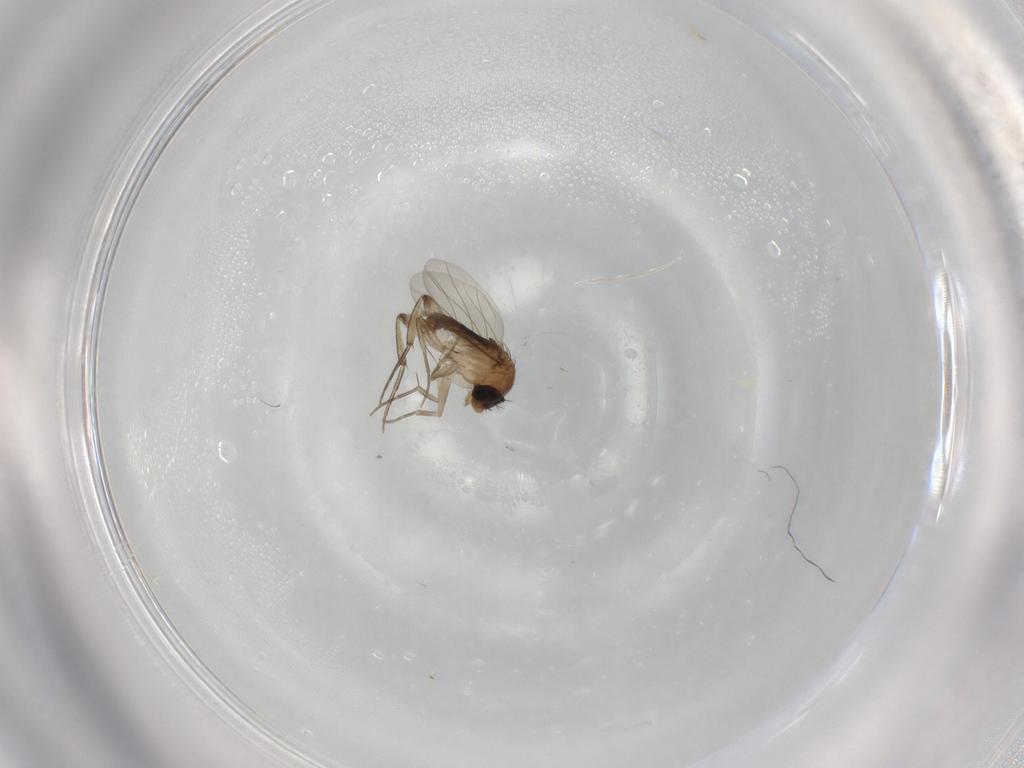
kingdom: Animalia
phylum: Arthropoda
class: Insecta
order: Diptera
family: Phoridae
